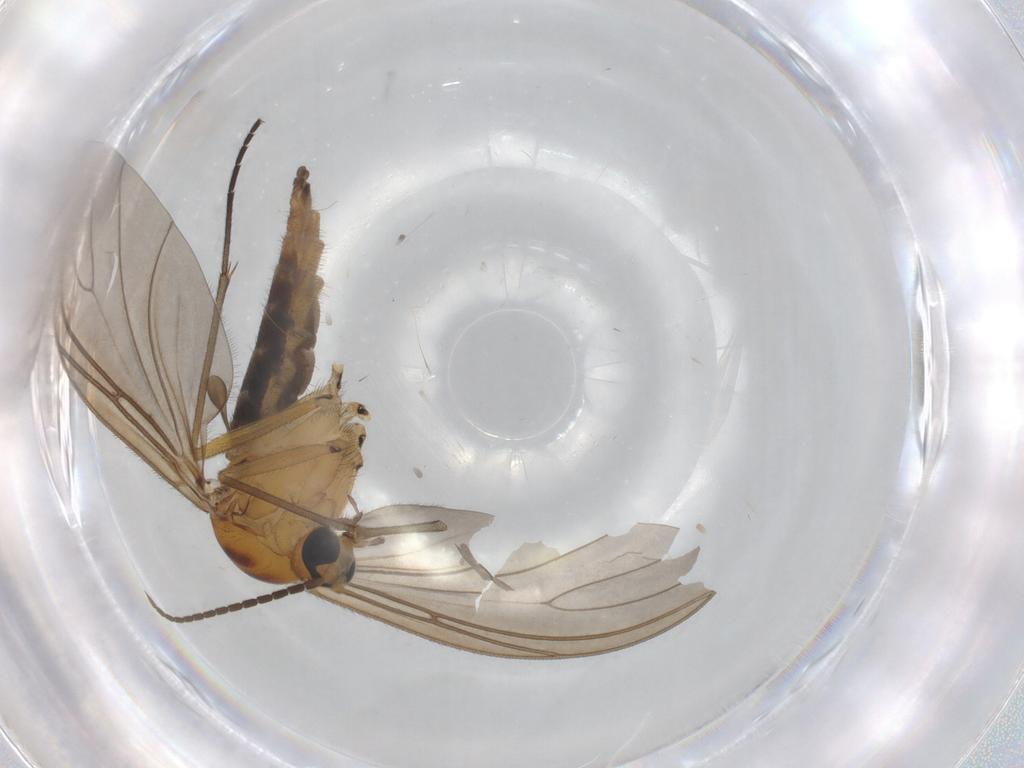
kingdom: Animalia
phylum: Arthropoda
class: Insecta
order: Diptera
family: Sciaridae
